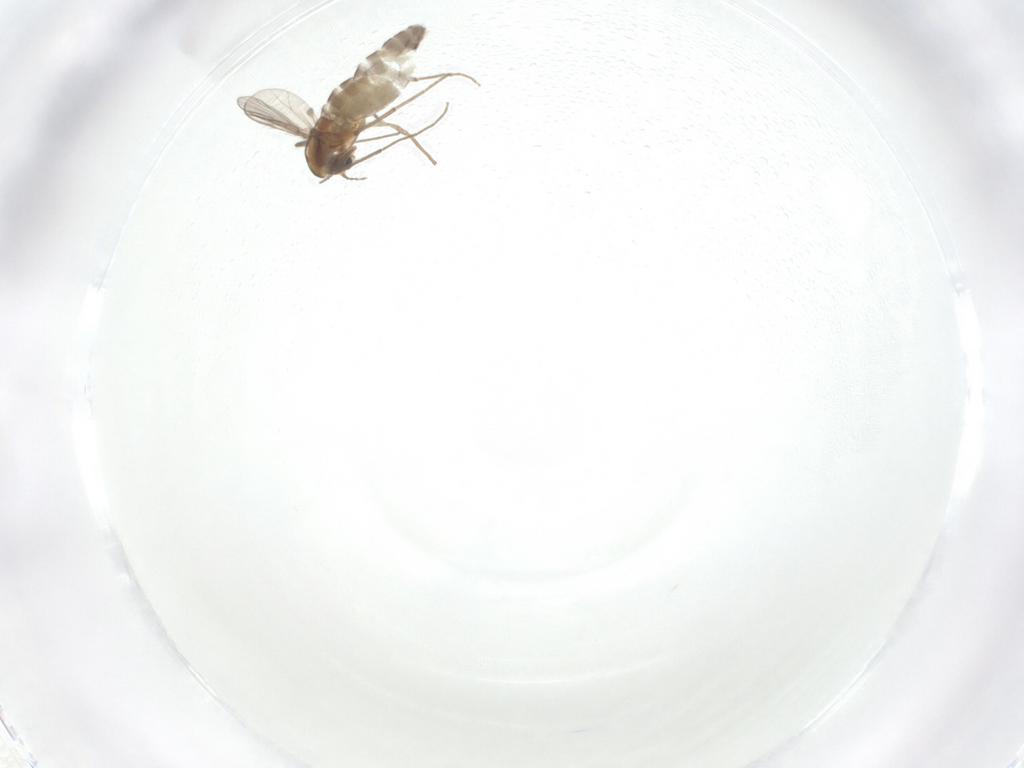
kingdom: Animalia
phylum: Arthropoda
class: Insecta
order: Diptera
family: Chironomidae
